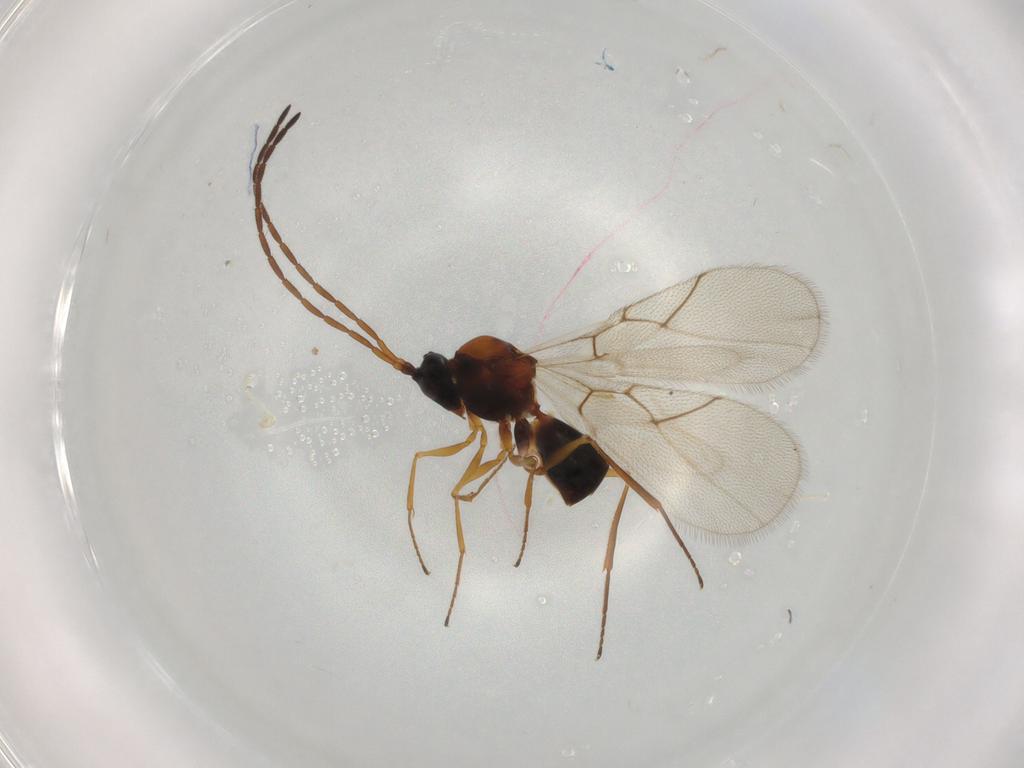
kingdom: Animalia
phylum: Arthropoda
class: Insecta
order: Hymenoptera
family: Figitidae
